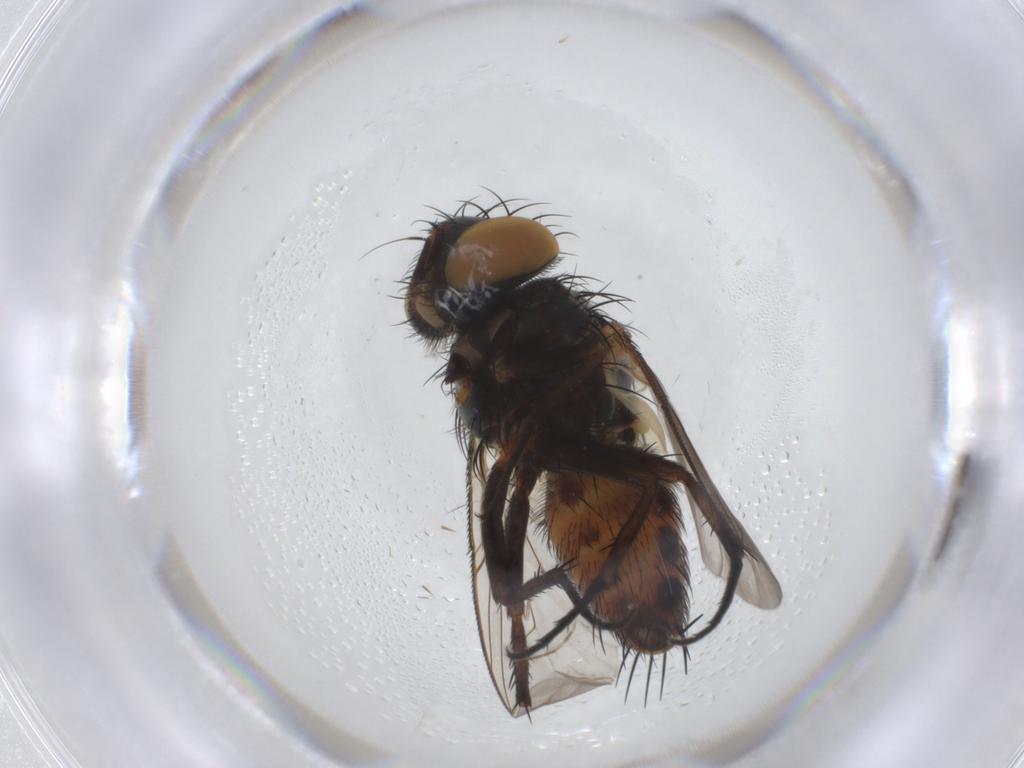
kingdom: Animalia
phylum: Arthropoda
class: Insecta
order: Diptera
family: Sarcophagidae
